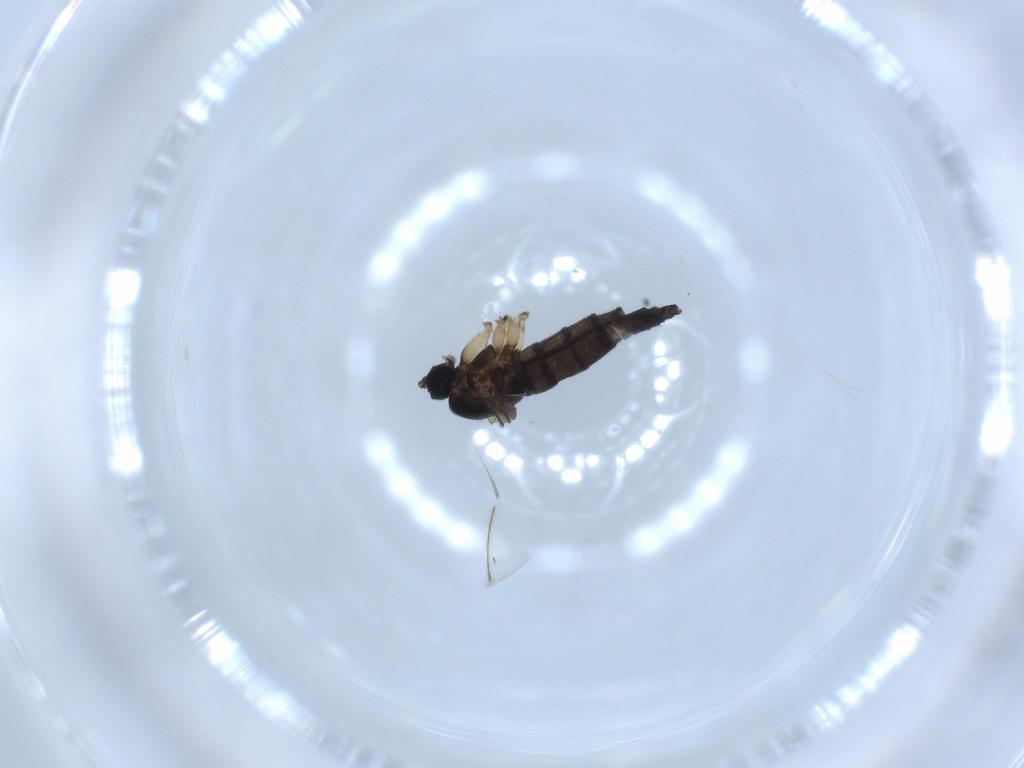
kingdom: Animalia
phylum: Arthropoda
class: Insecta
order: Diptera
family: Sciaridae
